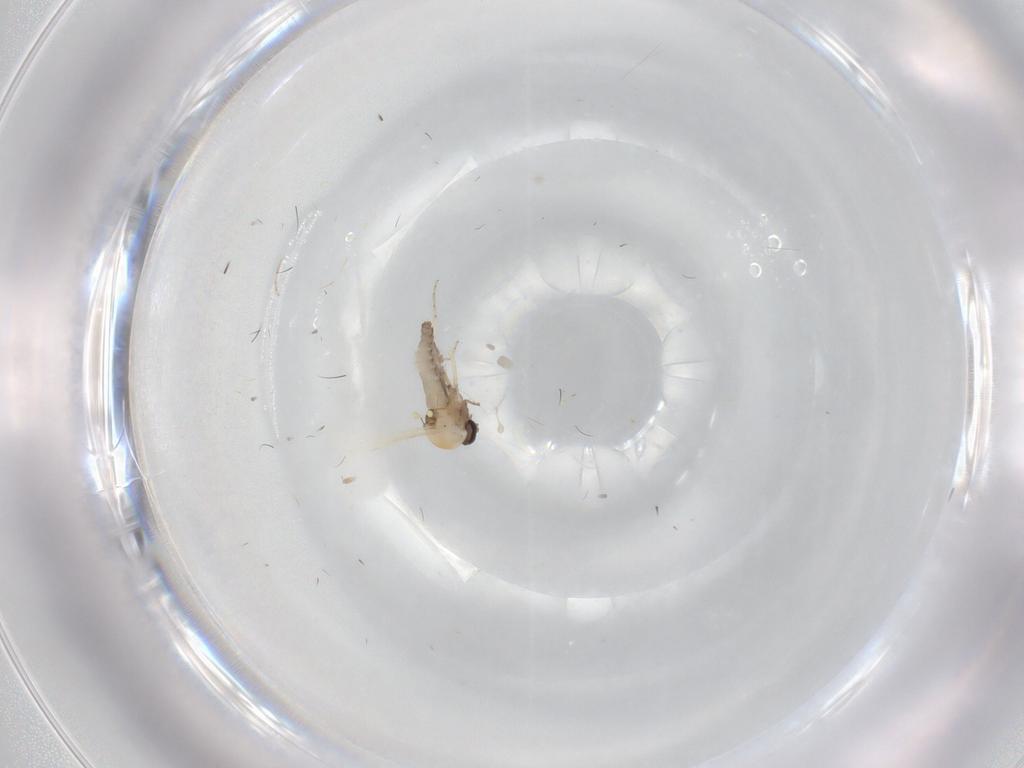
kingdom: Animalia
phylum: Arthropoda
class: Insecta
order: Diptera
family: Ceratopogonidae
